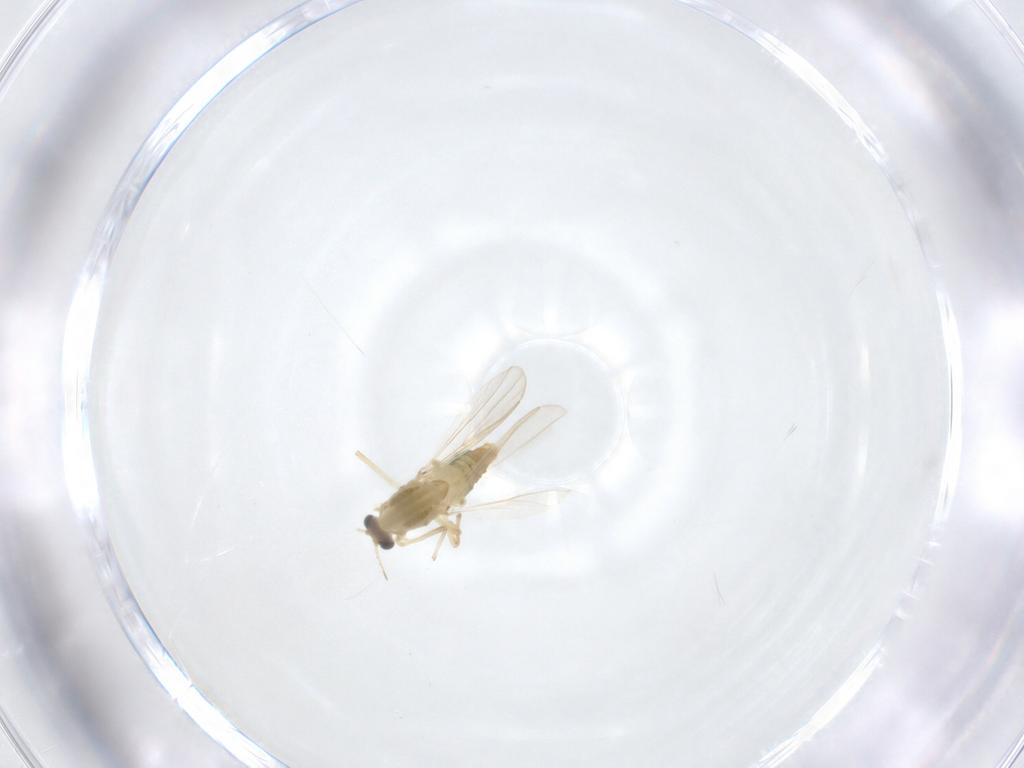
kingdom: Animalia
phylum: Arthropoda
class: Insecta
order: Diptera
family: Chironomidae
